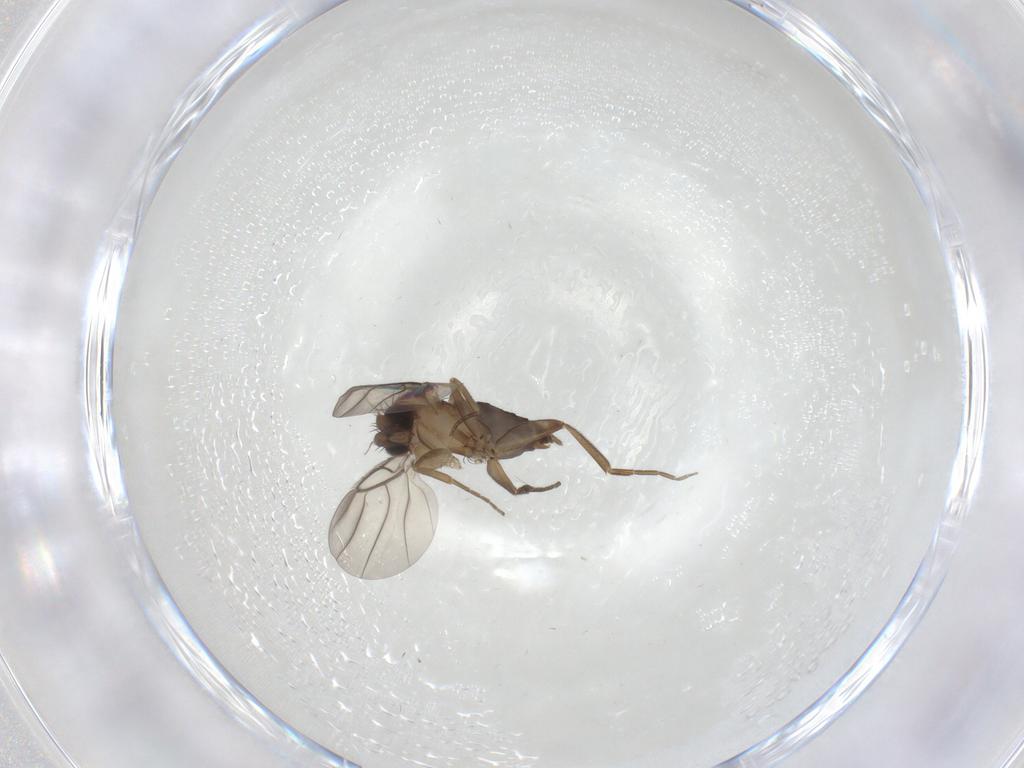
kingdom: Animalia
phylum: Arthropoda
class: Insecta
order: Diptera
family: Phoridae
